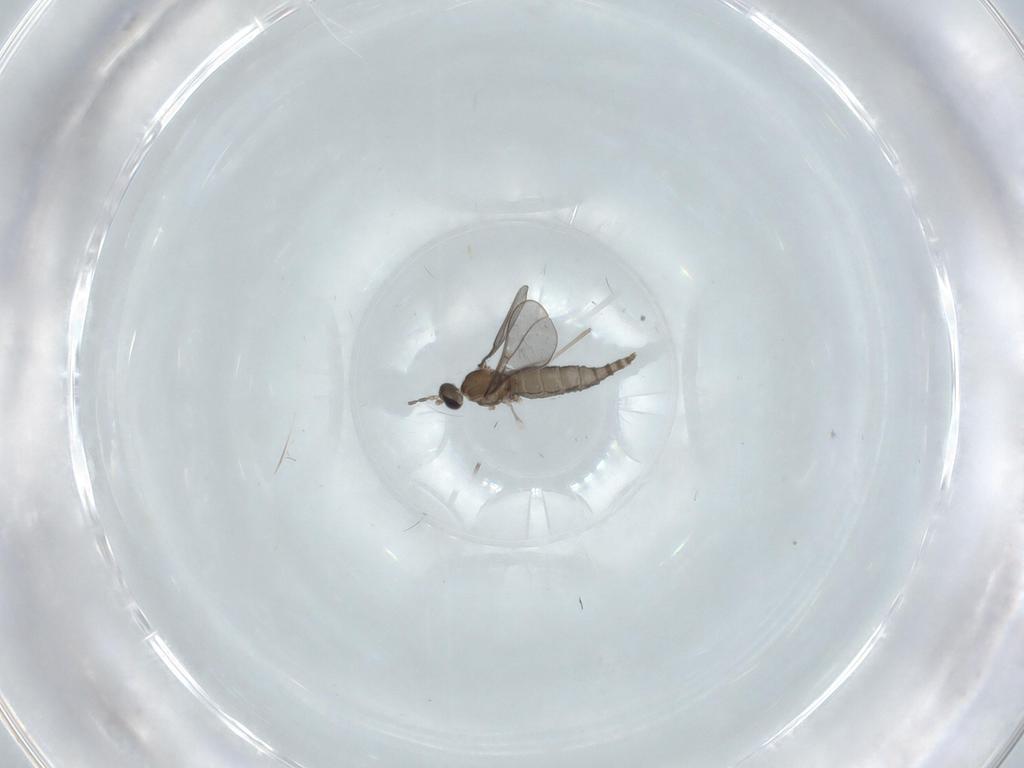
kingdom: Animalia
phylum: Arthropoda
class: Insecta
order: Diptera
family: Cecidomyiidae
